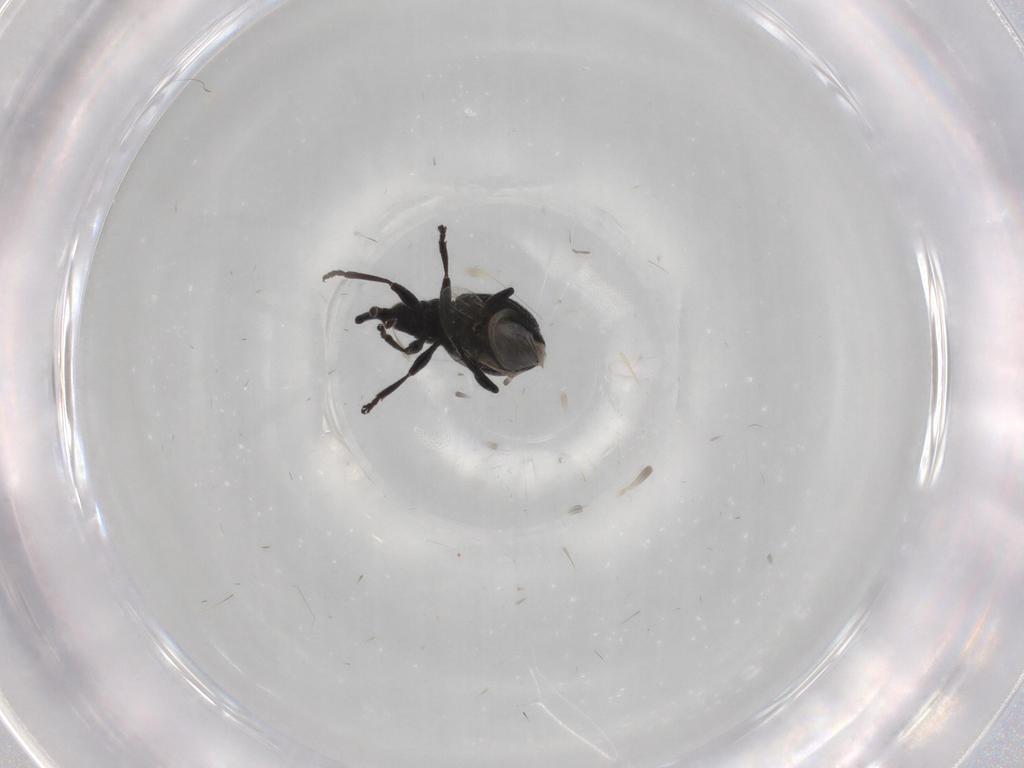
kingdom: Animalia
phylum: Arthropoda
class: Insecta
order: Coleoptera
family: Brentidae
